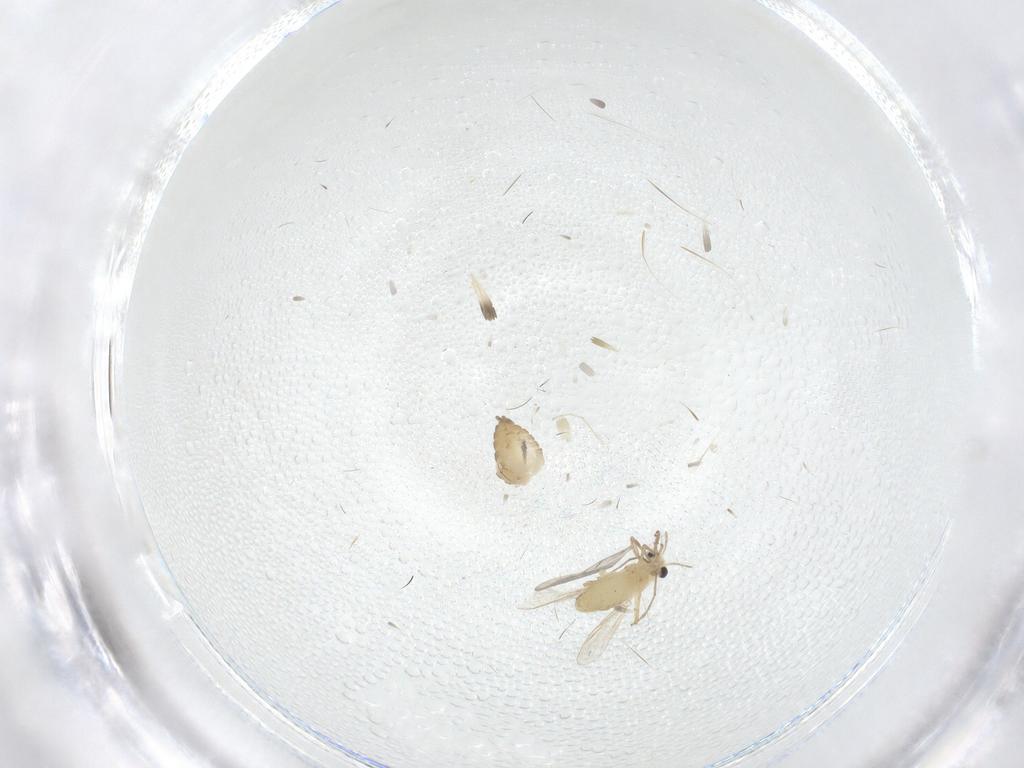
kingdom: Animalia
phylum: Arthropoda
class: Insecta
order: Diptera
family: Chironomidae
